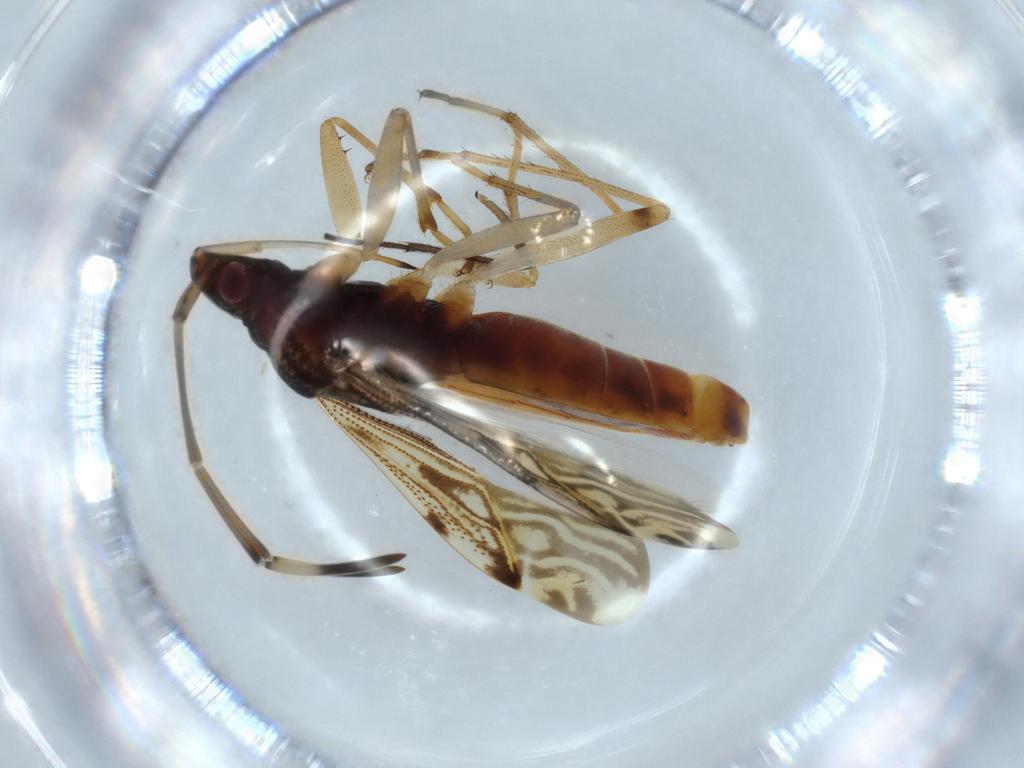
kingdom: Animalia
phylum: Arthropoda
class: Insecta
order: Hemiptera
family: Rhyparochromidae
